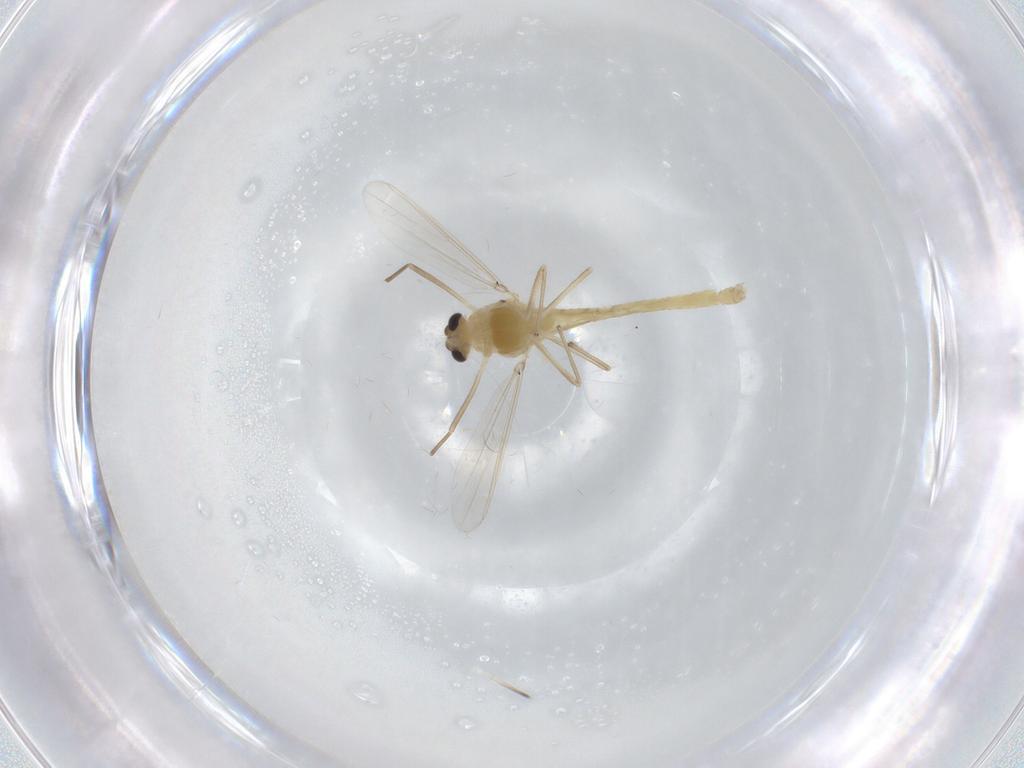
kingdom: Animalia
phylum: Arthropoda
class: Insecta
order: Diptera
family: Chironomidae
